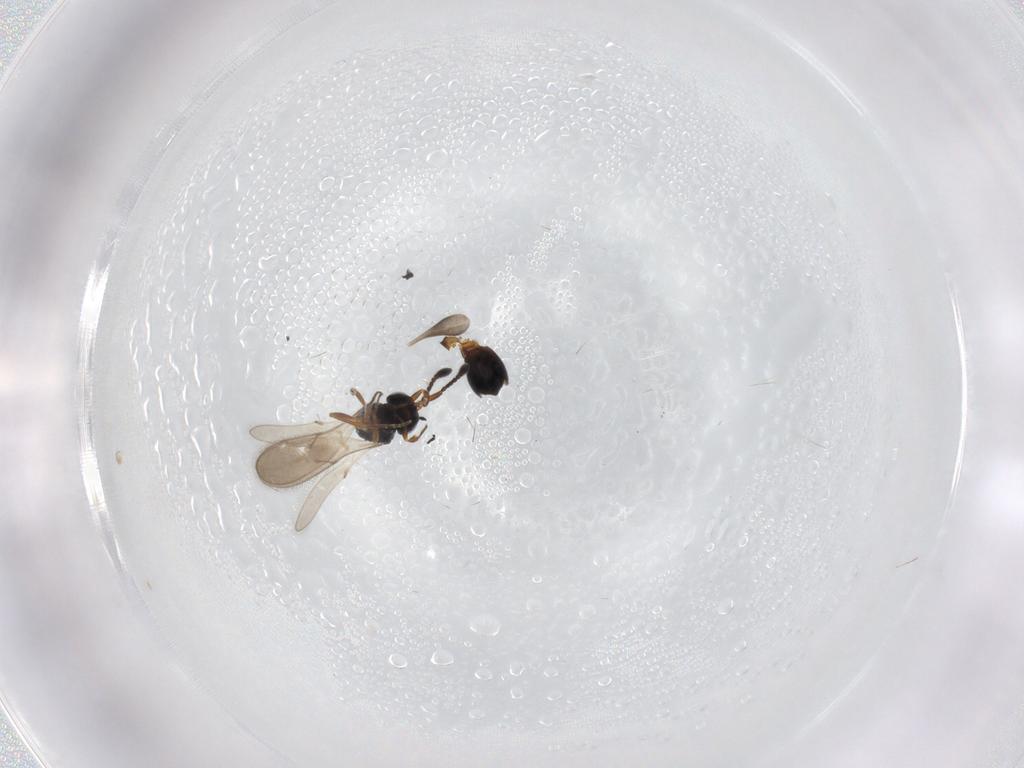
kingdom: Animalia
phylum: Arthropoda
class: Insecta
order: Hymenoptera
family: Scelionidae
